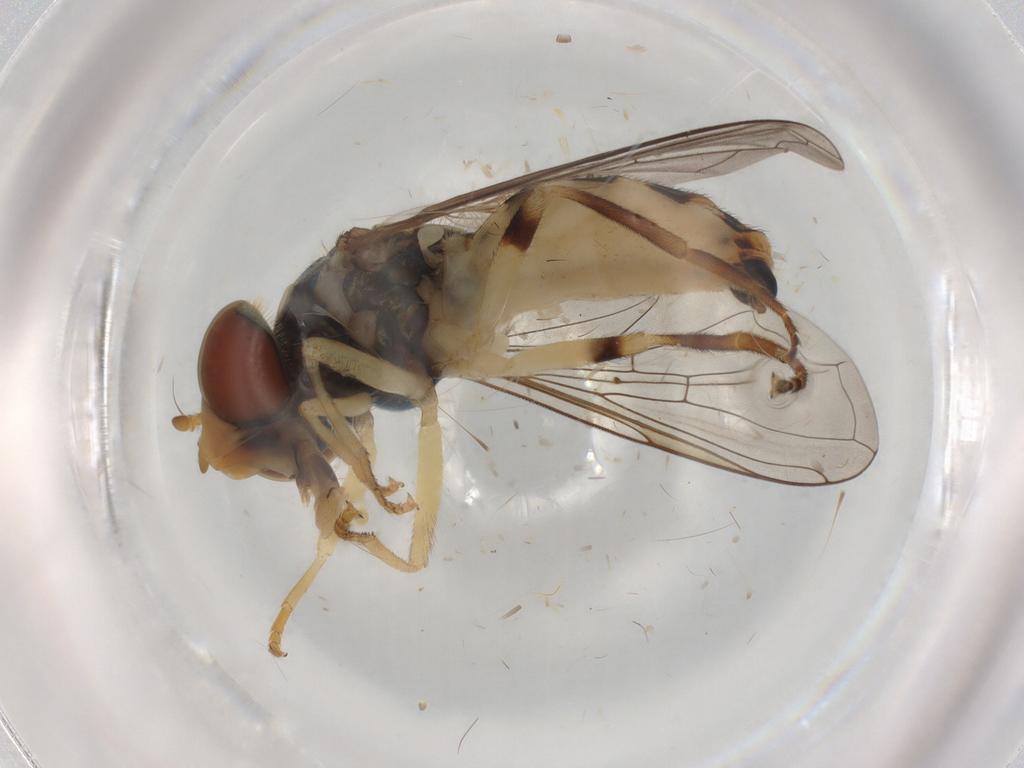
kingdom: Animalia
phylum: Arthropoda
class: Insecta
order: Diptera
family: Syrphidae
